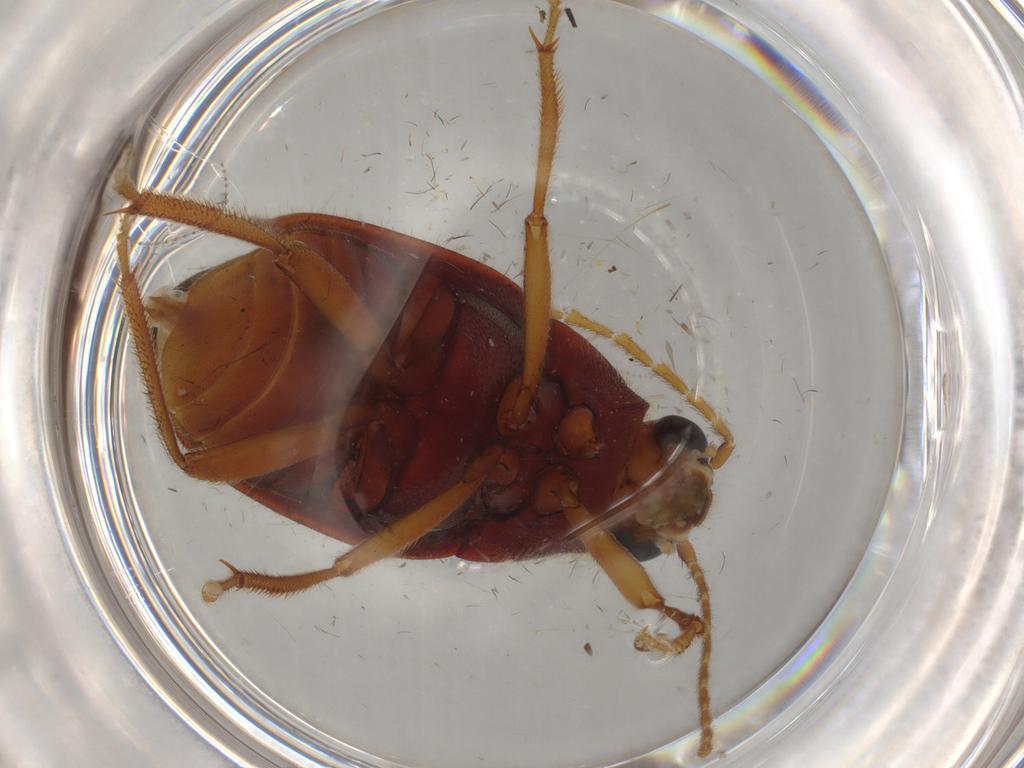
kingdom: Animalia
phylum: Arthropoda
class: Insecta
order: Coleoptera
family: Ptilodactylidae
